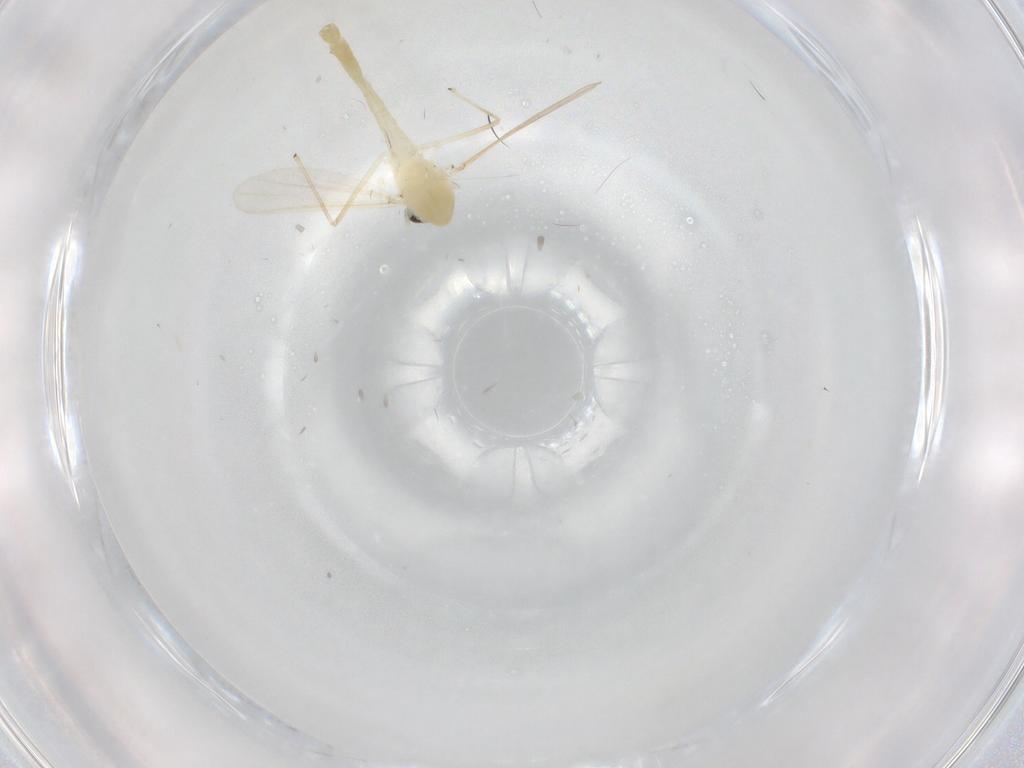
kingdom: Animalia
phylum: Arthropoda
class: Insecta
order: Diptera
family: Chironomidae
